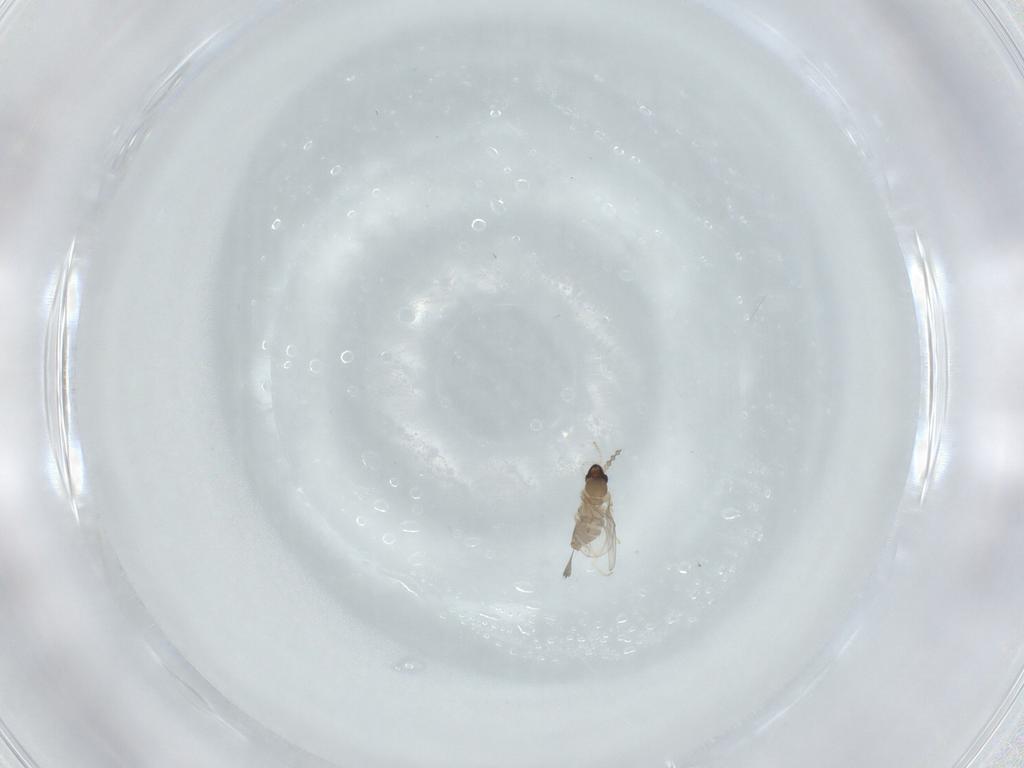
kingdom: Animalia
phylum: Arthropoda
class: Insecta
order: Diptera
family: Cecidomyiidae
